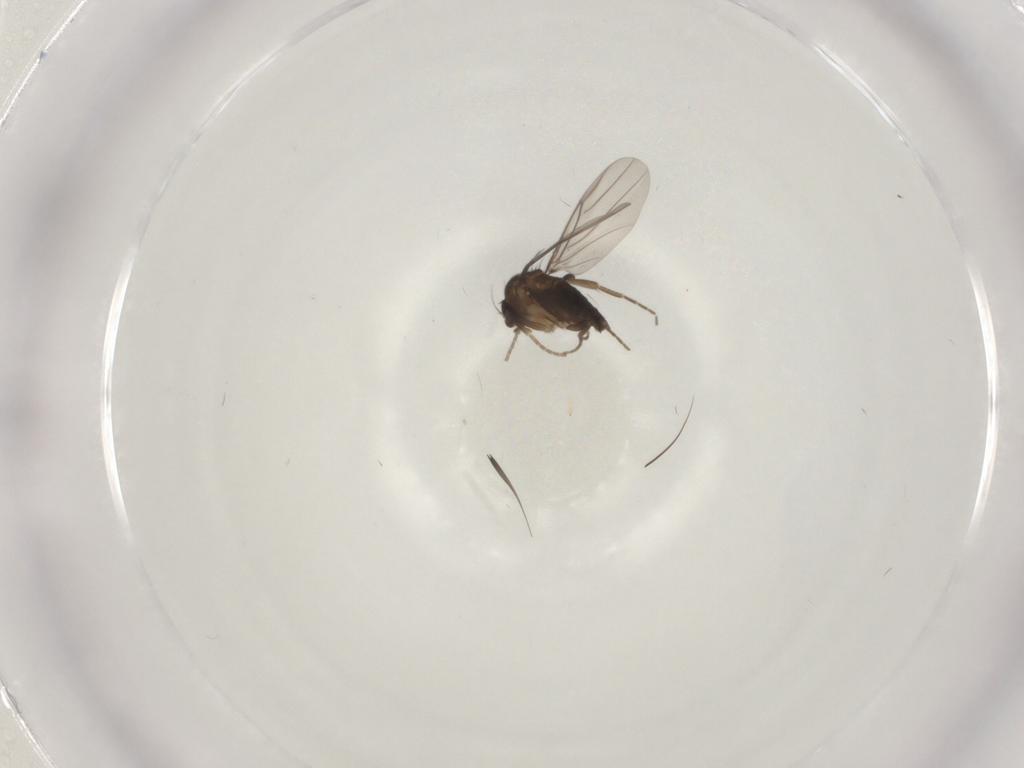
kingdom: Animalia
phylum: Arthropoda
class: Insecta
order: Diptera
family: Phoridae
